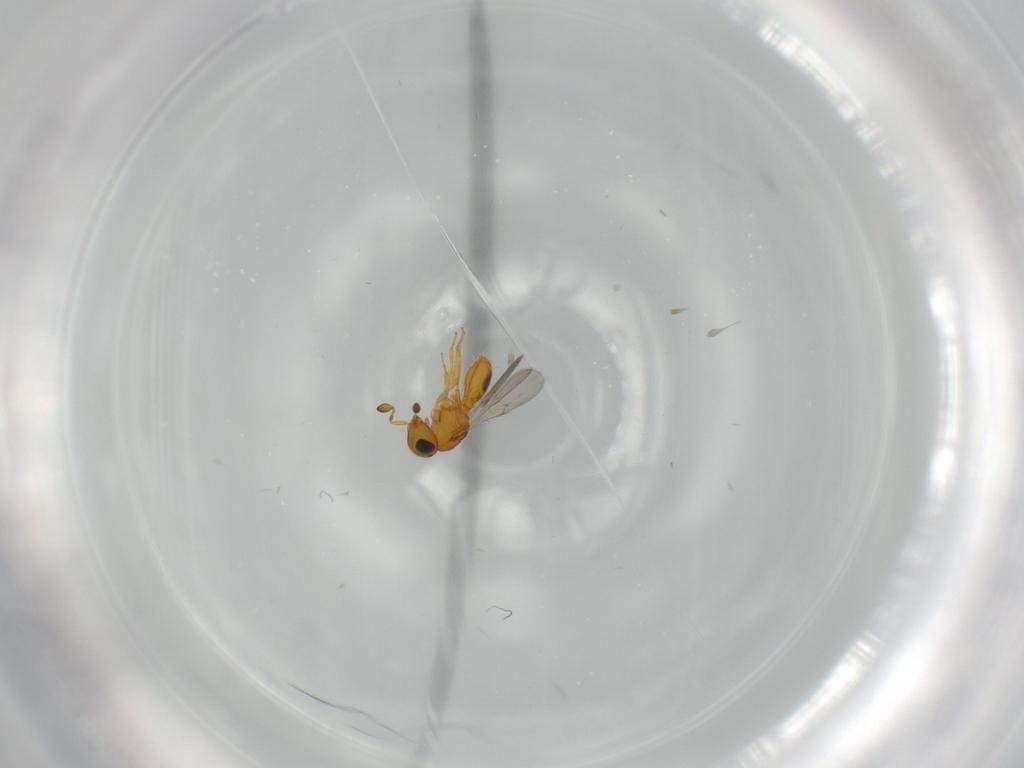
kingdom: Animalia
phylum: Arthropoda
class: Insecta
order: Hymenoptera
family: Scelionidae
